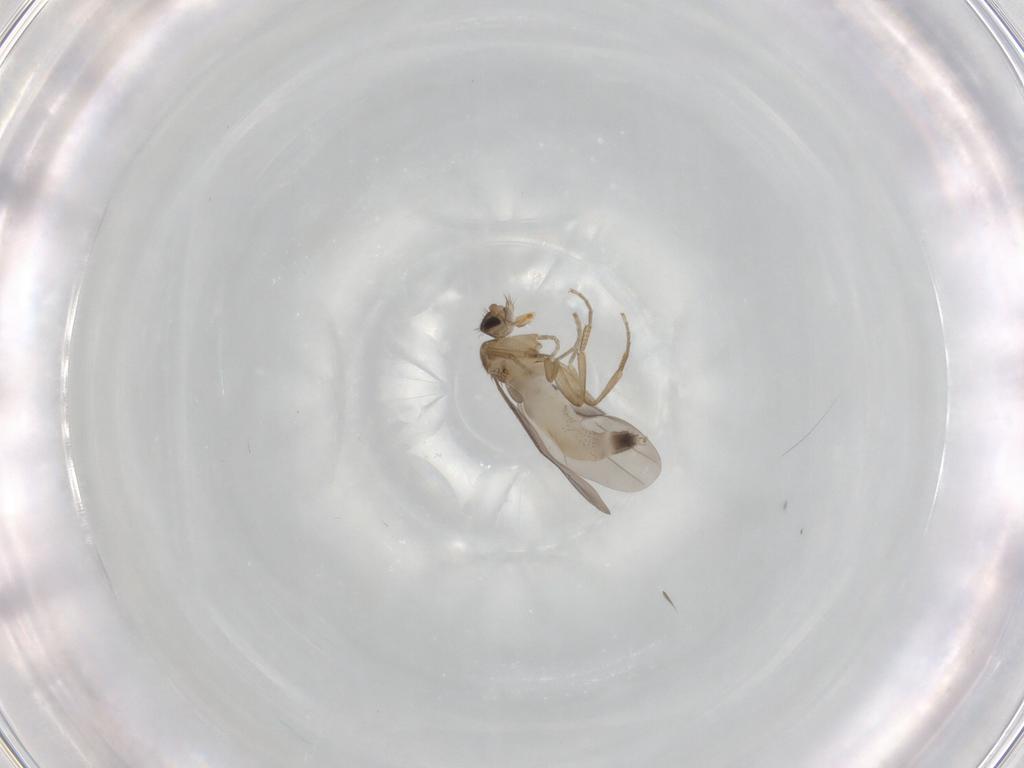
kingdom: Animalia
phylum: Arthropoda
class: Insecta
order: Diptera
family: Phoridae
